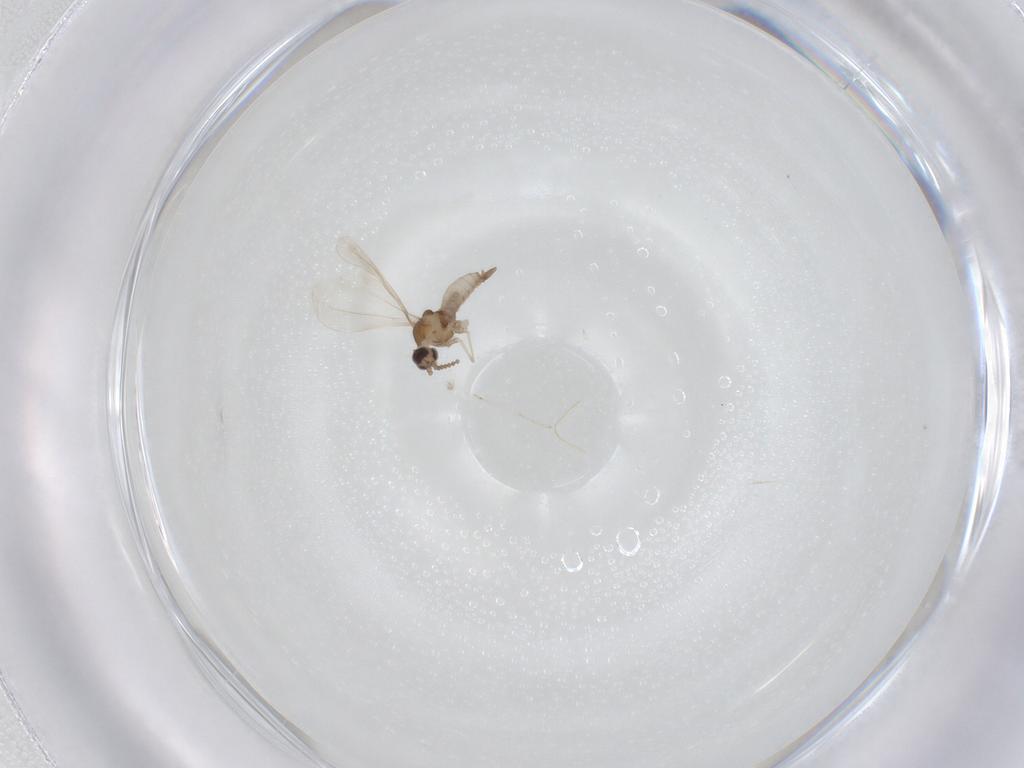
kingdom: Animalia
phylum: Arthropoda
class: Insecta
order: Diptera
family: Cecidomyiidae
